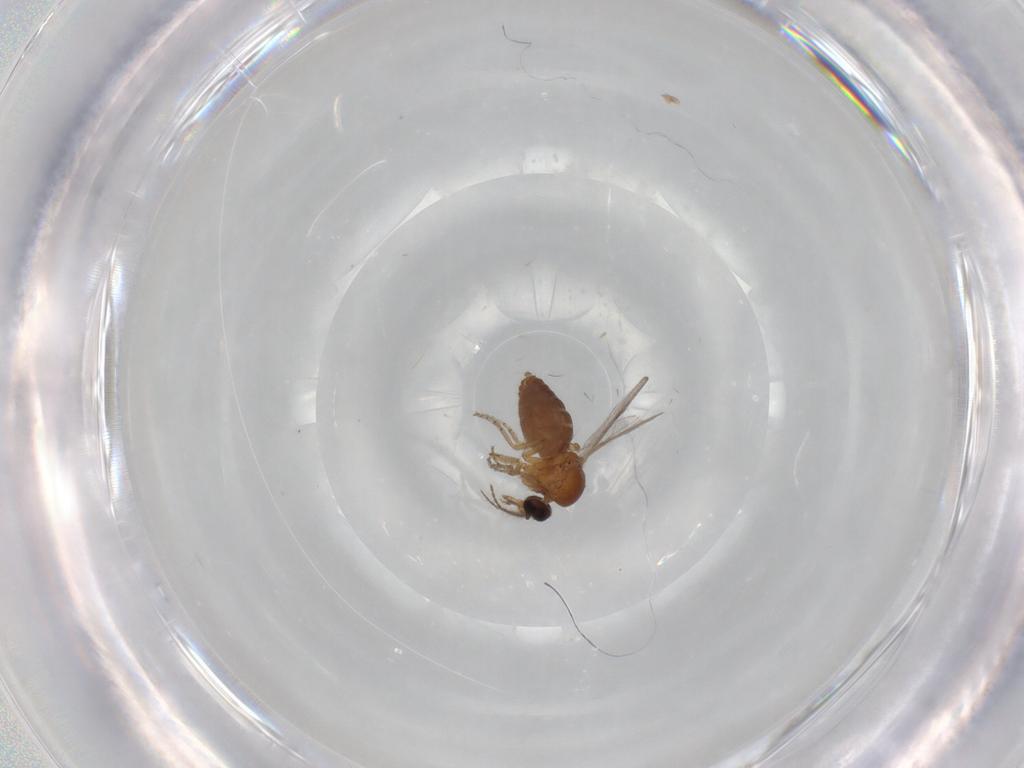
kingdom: Animalia
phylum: Arthropoda
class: Insecta
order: Diptera
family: Ceratopogonidae
